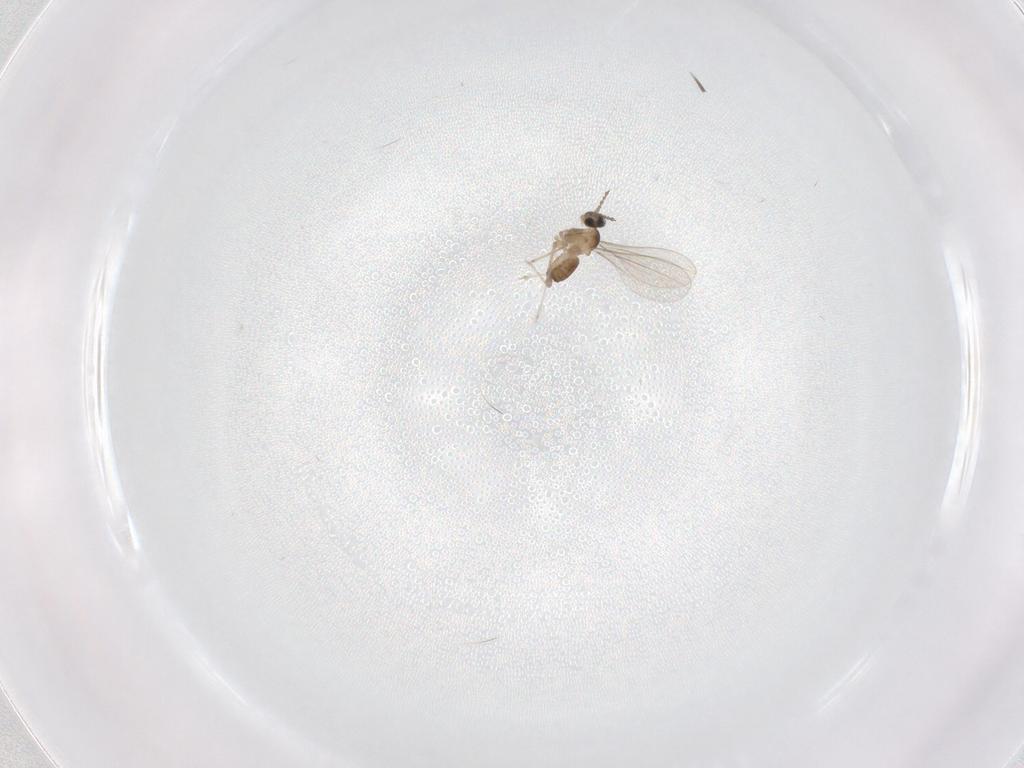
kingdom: Animalia
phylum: Arthropoda
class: Insecta
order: Diptera
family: Cecidomyiidae
